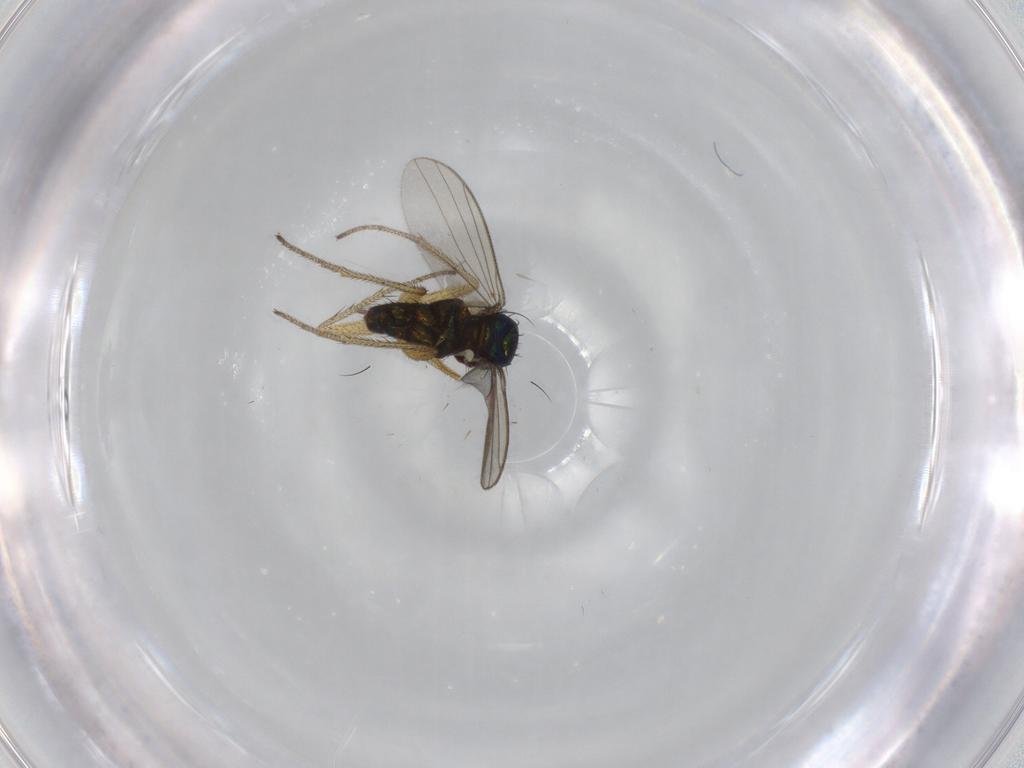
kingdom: Animalia
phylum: Arthropoda
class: Insecta
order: Diptera
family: Dolichopodidae
